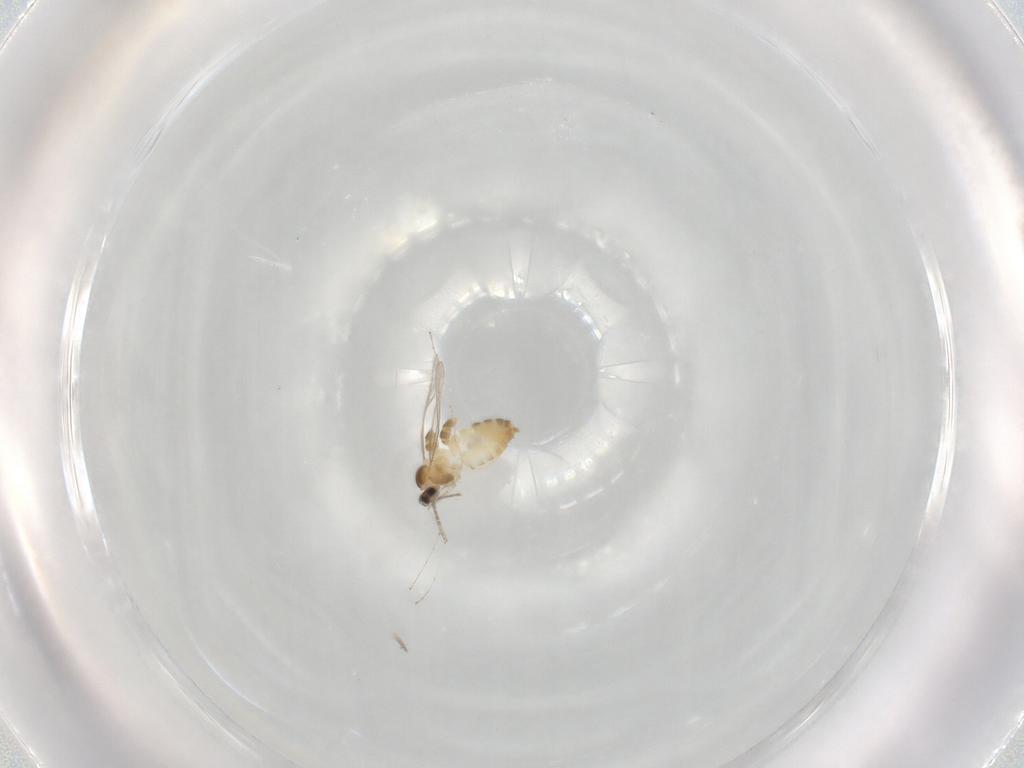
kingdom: Animalia
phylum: Arthropoda
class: Insecta
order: Diptera
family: Cecidomyiidae
